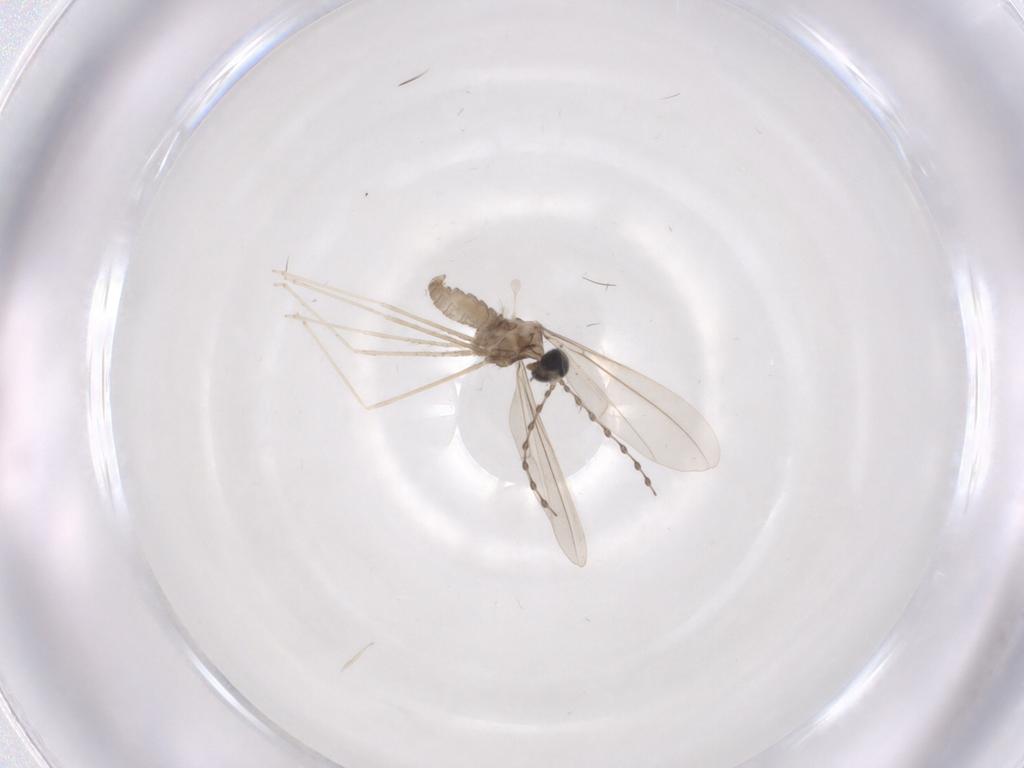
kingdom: Animalia
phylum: Arthropoda
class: Insecta
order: Diptera
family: Cecidomyiidae
